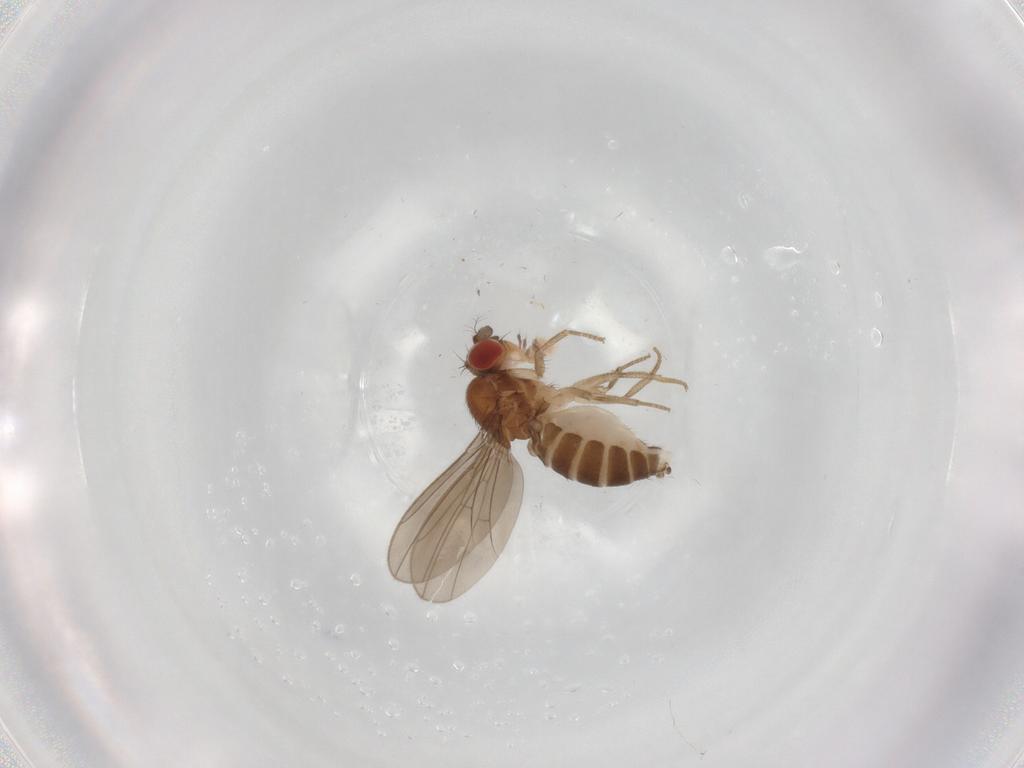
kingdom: Animalia
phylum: Arthropoda
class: Insecta
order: Diptera
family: Drosophilidae
